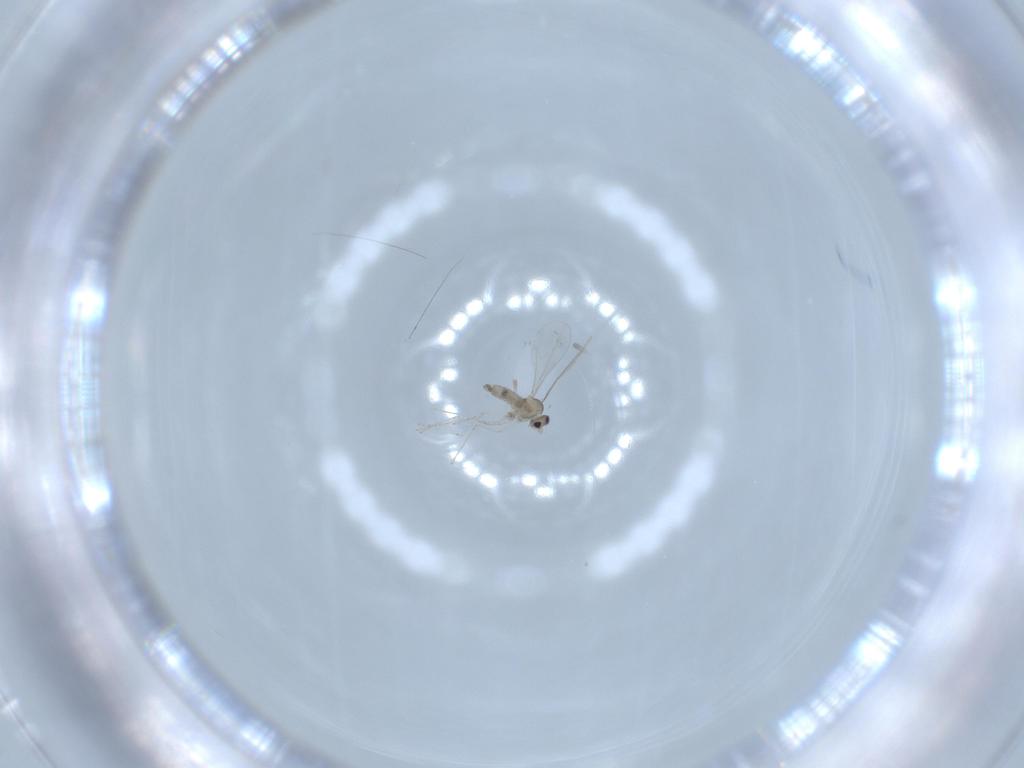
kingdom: Animalia
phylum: Arthropoda
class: Insecta
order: Diptera
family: Cecidomyiidae
